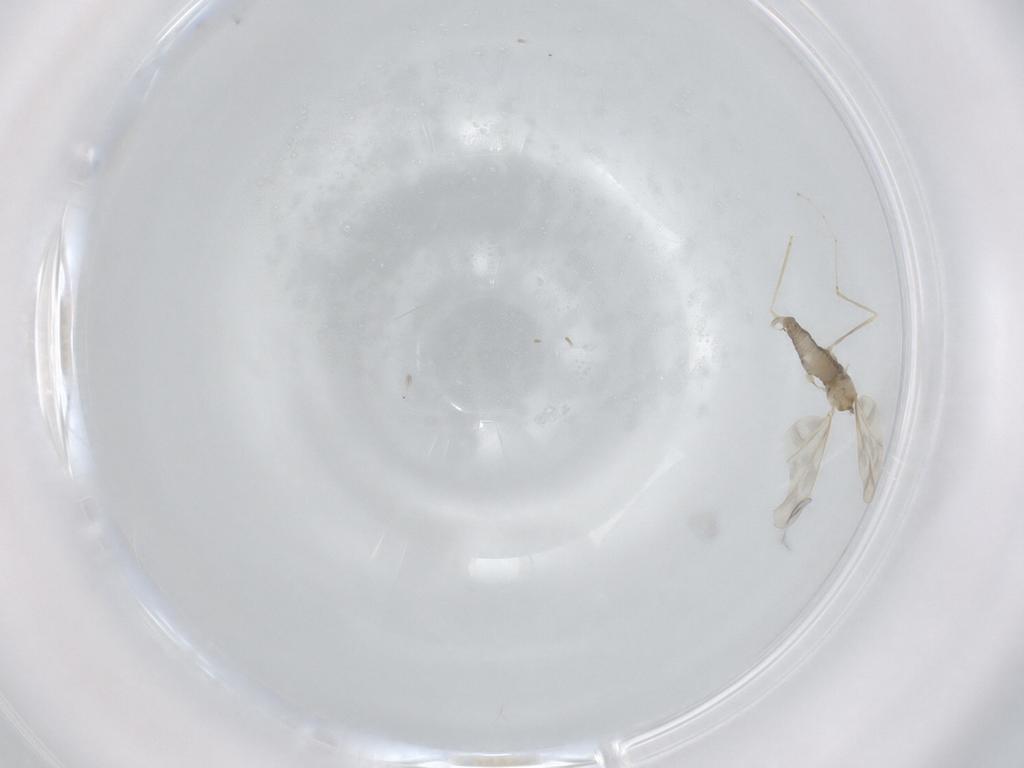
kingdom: Animalia
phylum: Arthropoda
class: Insecta
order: Diptera
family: Cecidomyiidae
